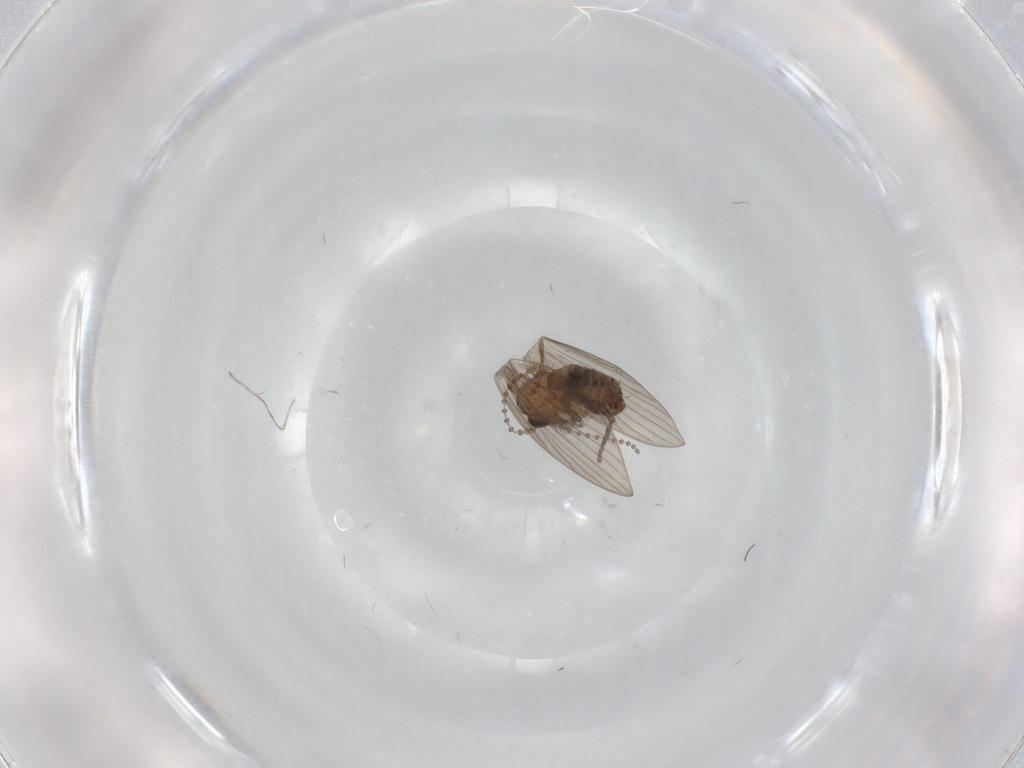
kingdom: Animalia
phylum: Arthropoda
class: Insecta
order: Diptera
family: Psychodidae
